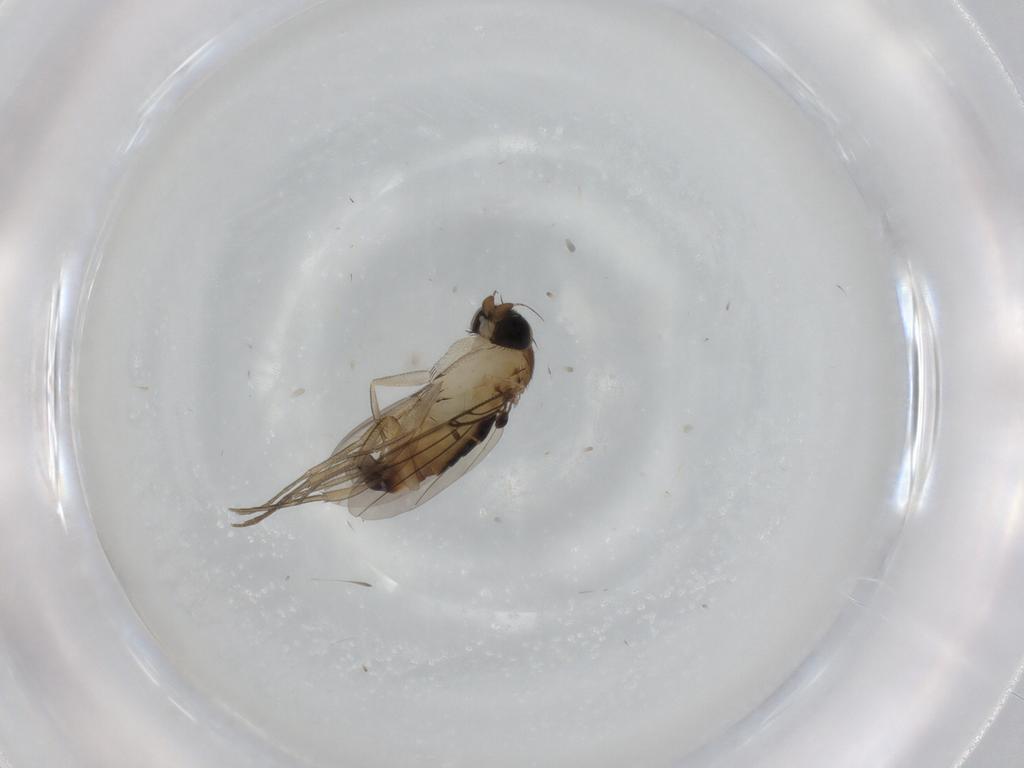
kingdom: Animalia
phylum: Arthropoda
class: Insecta
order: Diptera
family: Phoridae
